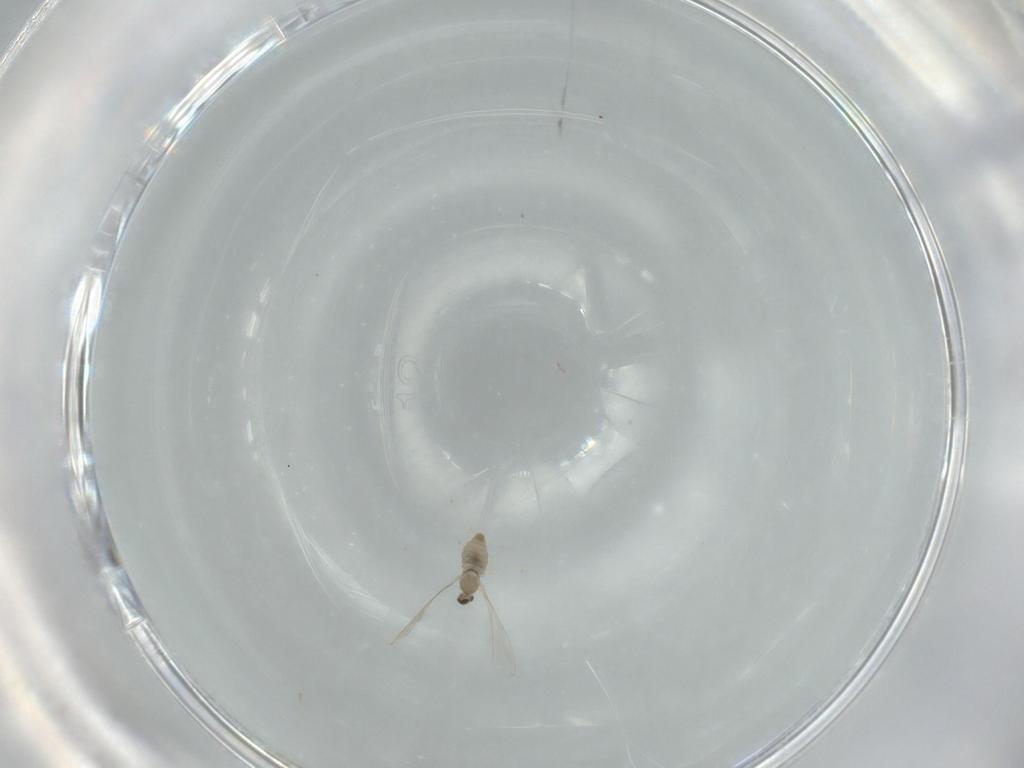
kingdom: Animalia
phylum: Arthropoda
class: Insecta
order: Diptera
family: Cecidomyiidae
